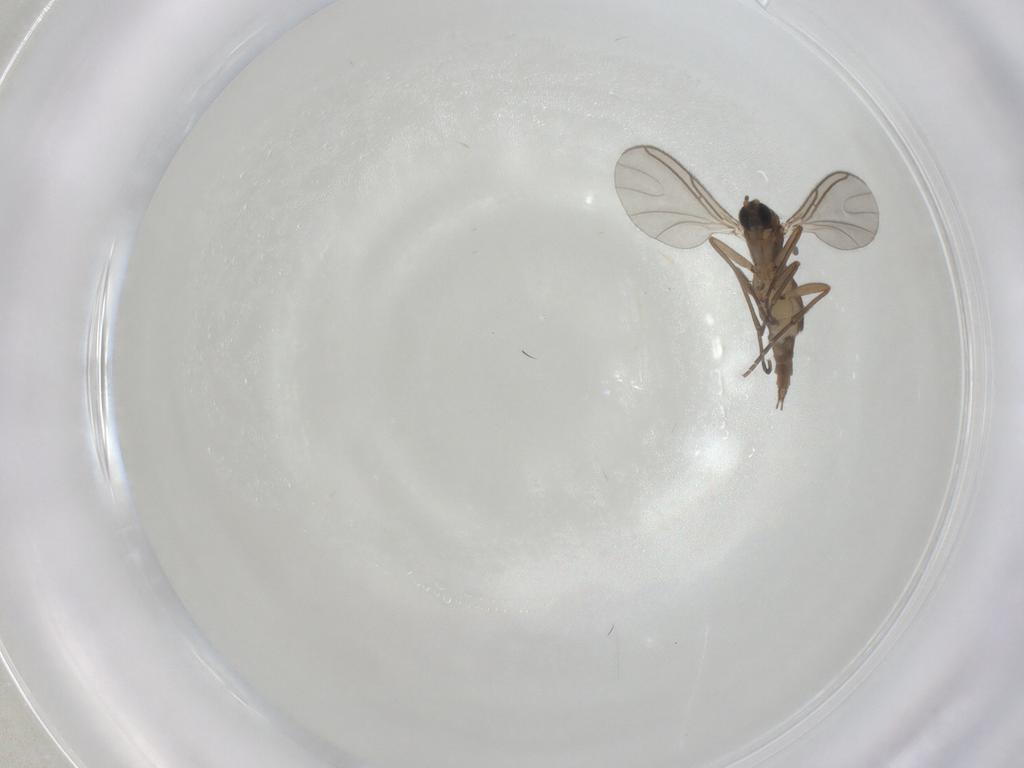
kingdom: Animalia
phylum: Arthropoda
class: Insecta
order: Diptera
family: Sciaridae
